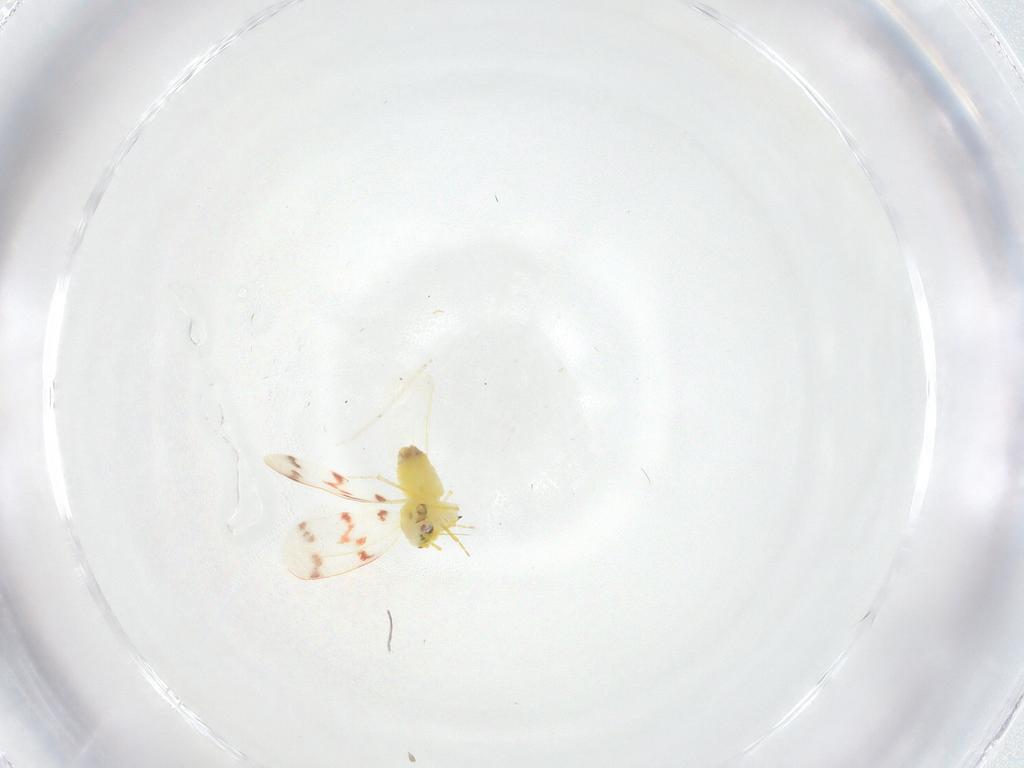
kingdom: Animalia
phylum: Arthropoda
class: Insecta
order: Hemiptera
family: Aleyrodidae
